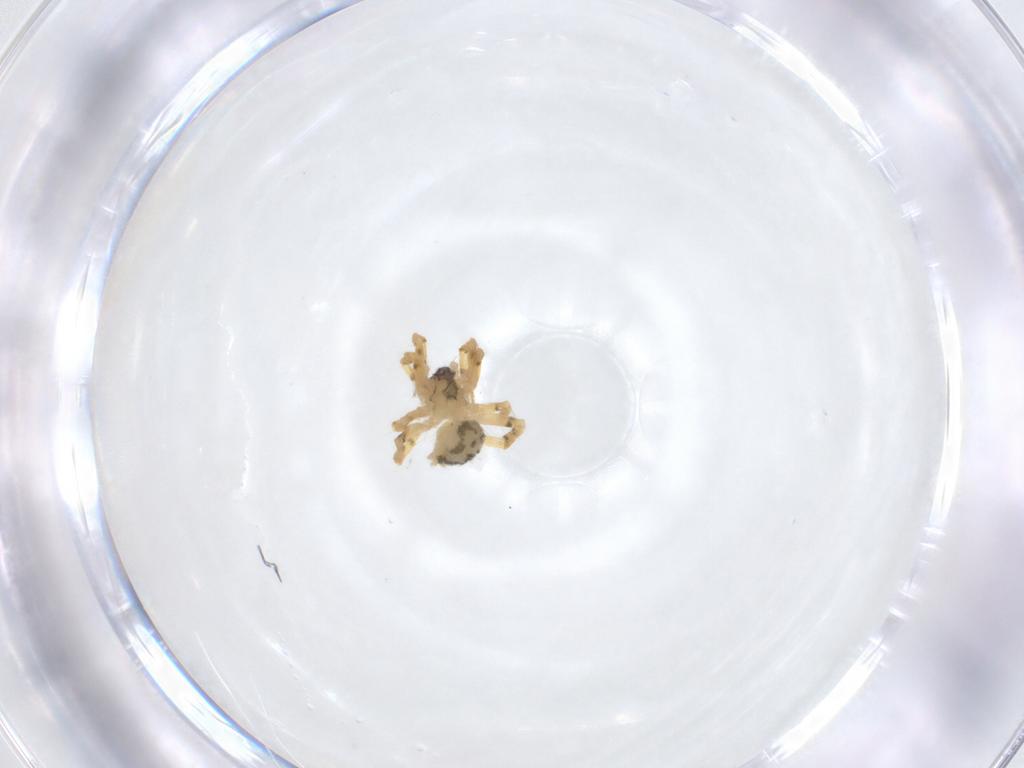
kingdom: Animalia
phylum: Arthropoda
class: Arachnida
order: Araneae
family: Theridiidae
